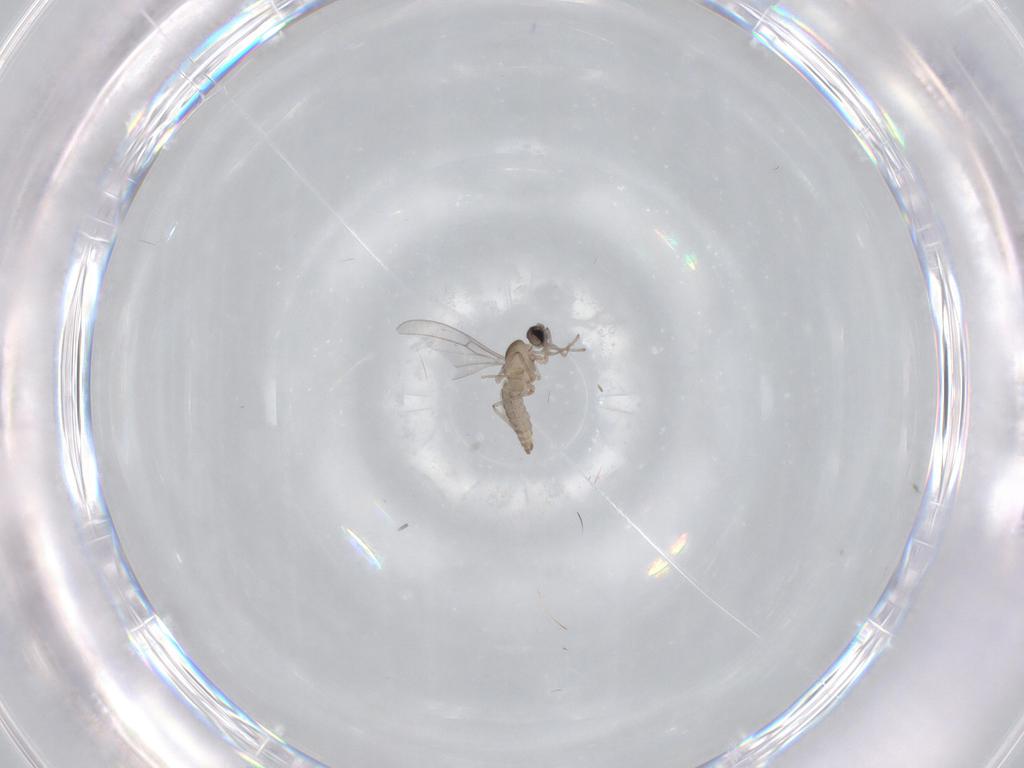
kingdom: Animalia
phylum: Arthropoda
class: Insecta
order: Diptera
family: Cecidomyiidae
